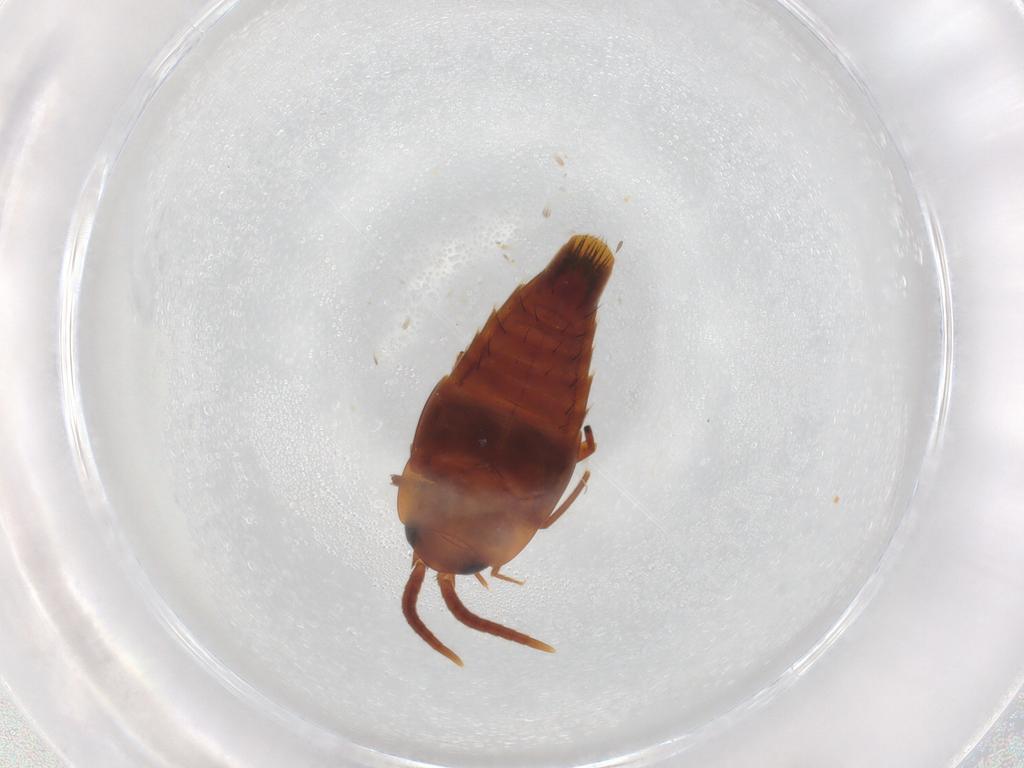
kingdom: Animalia
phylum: Arthropoda
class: Insecta
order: Coleoptera
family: Staphylinidae
